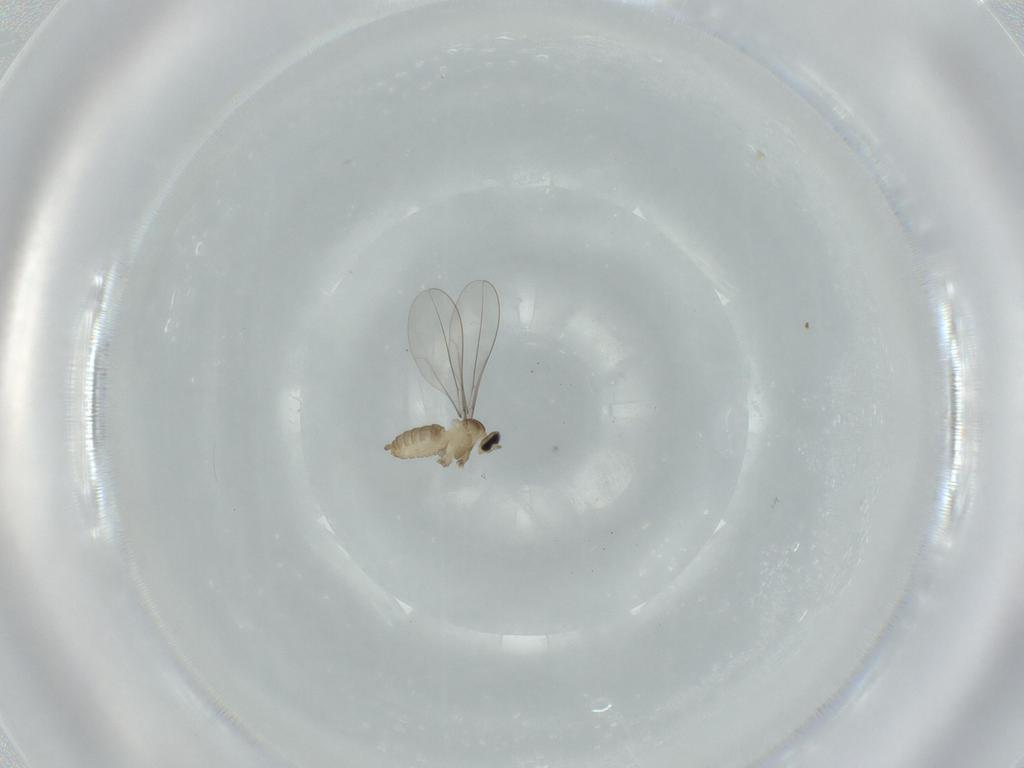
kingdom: Animalia
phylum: Arthropoda
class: Insecta
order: Diptera
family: Cecidomyiidae
